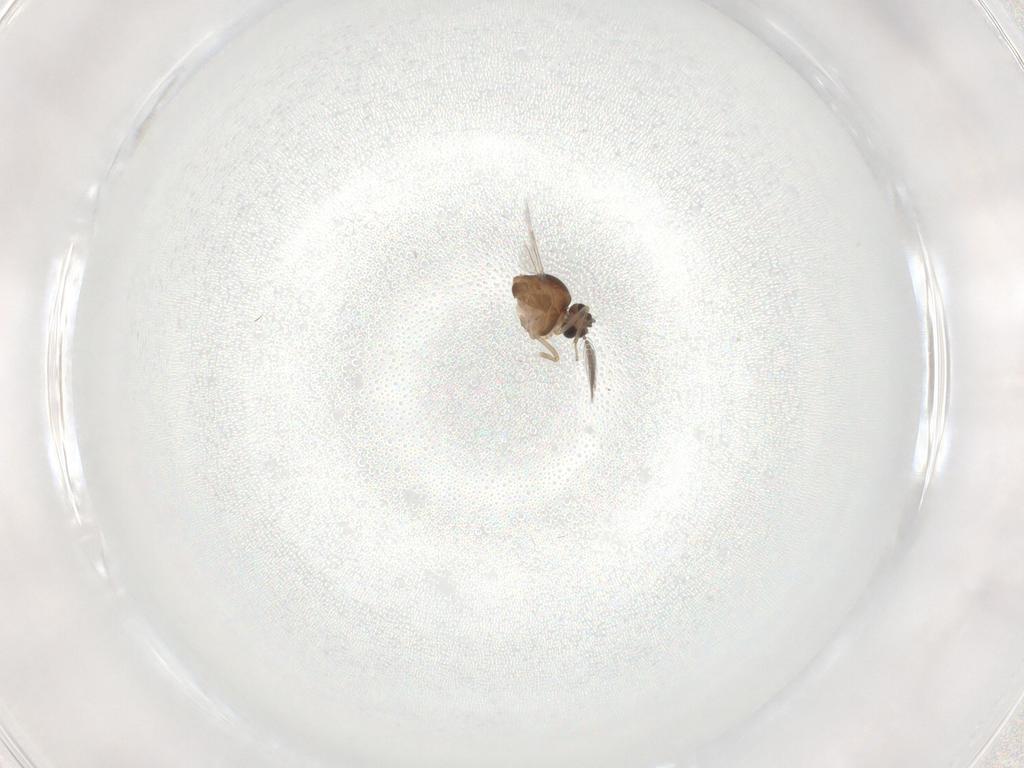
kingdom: Animalia
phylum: Arthropoda
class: Insecta
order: Diptera
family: Ceratopogonidae
